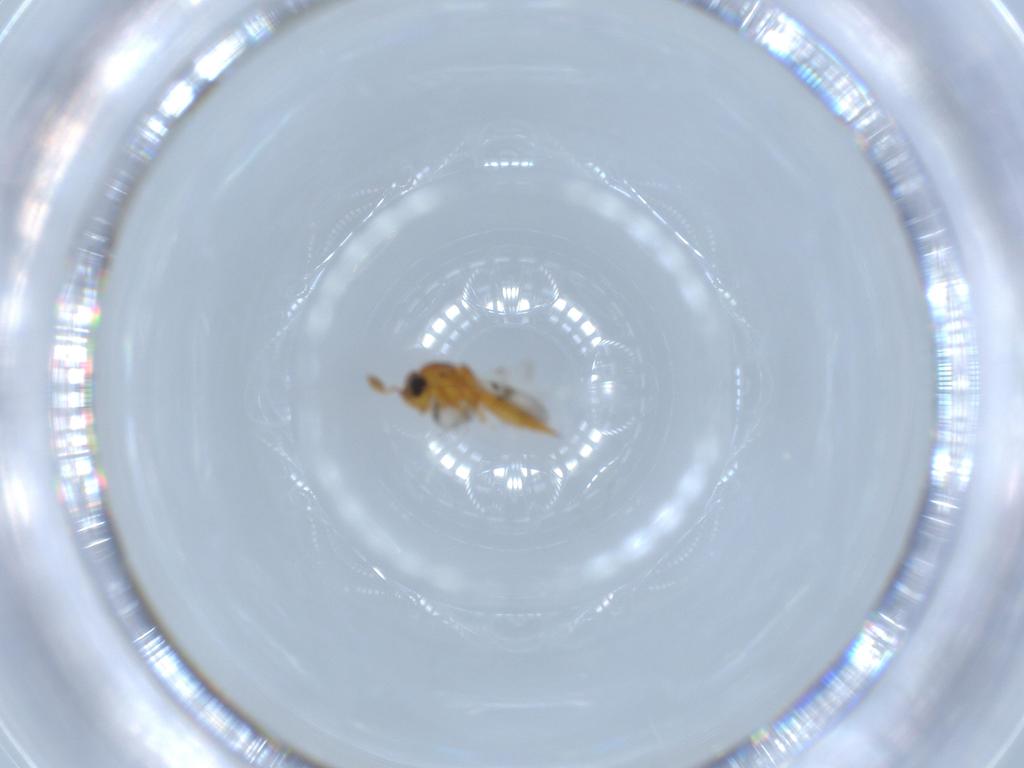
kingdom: Animalia
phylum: Arthropoda
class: Insecta
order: Hymenoptera
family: Scelionidae
